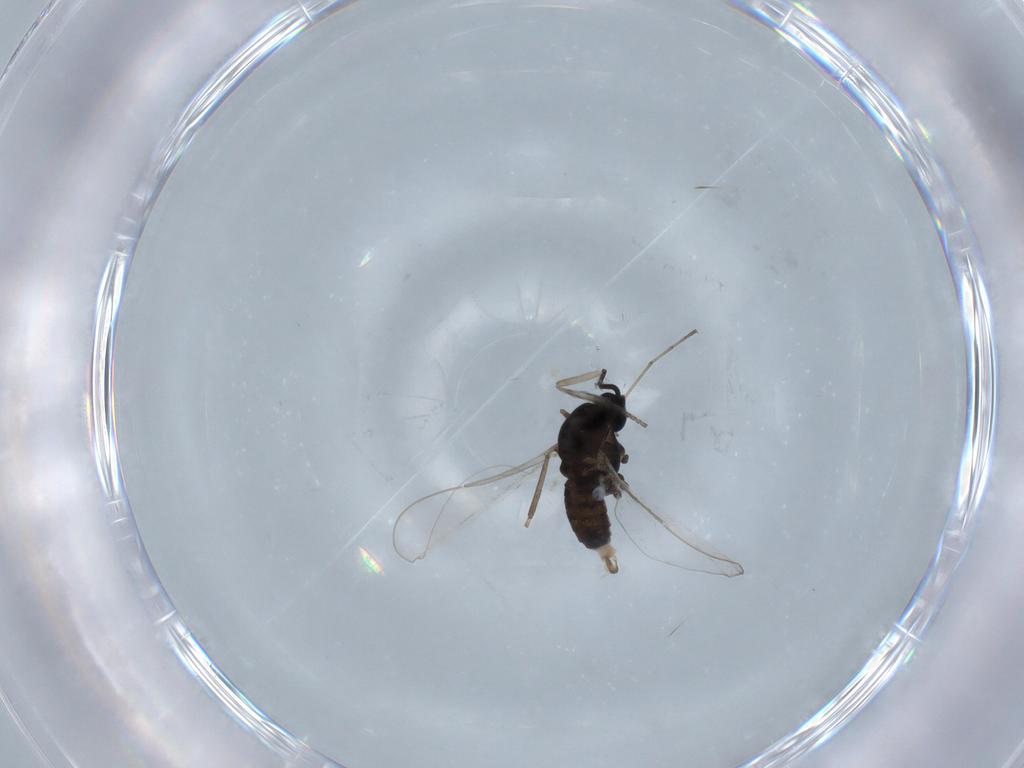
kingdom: Animalia
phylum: Arthropoda
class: Insecta
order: Diptera
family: Cecidomyiidae
